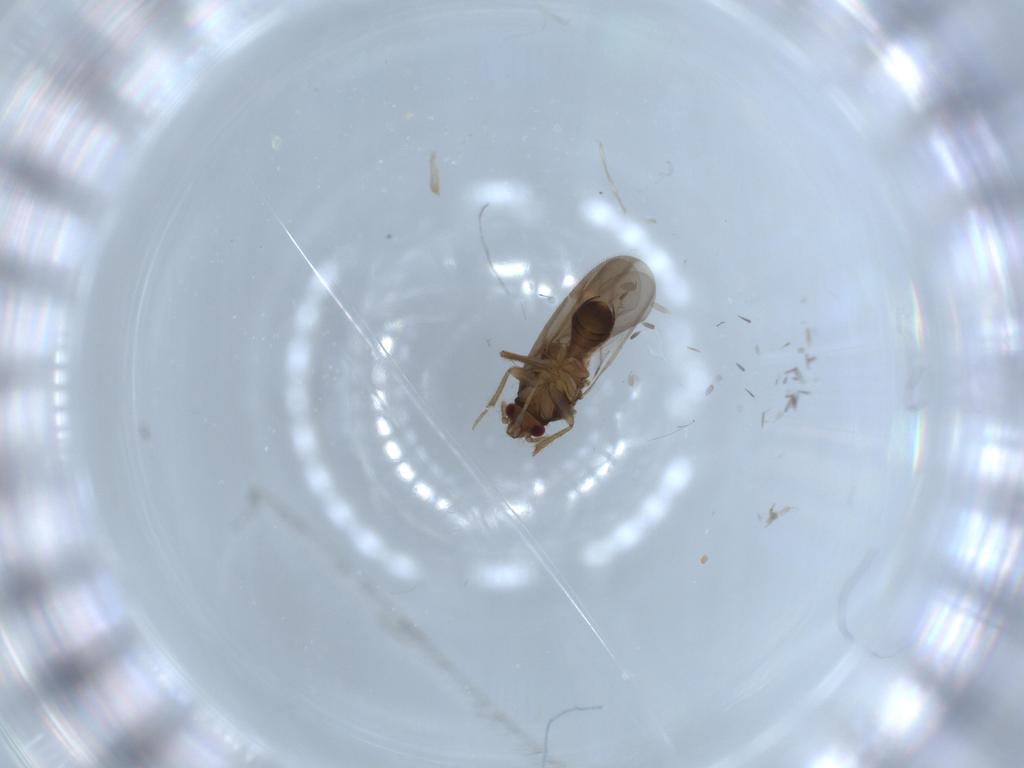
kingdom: Animalia
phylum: Arthropoda
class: Insecta
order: Hemiptera
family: Ceratocombidae
